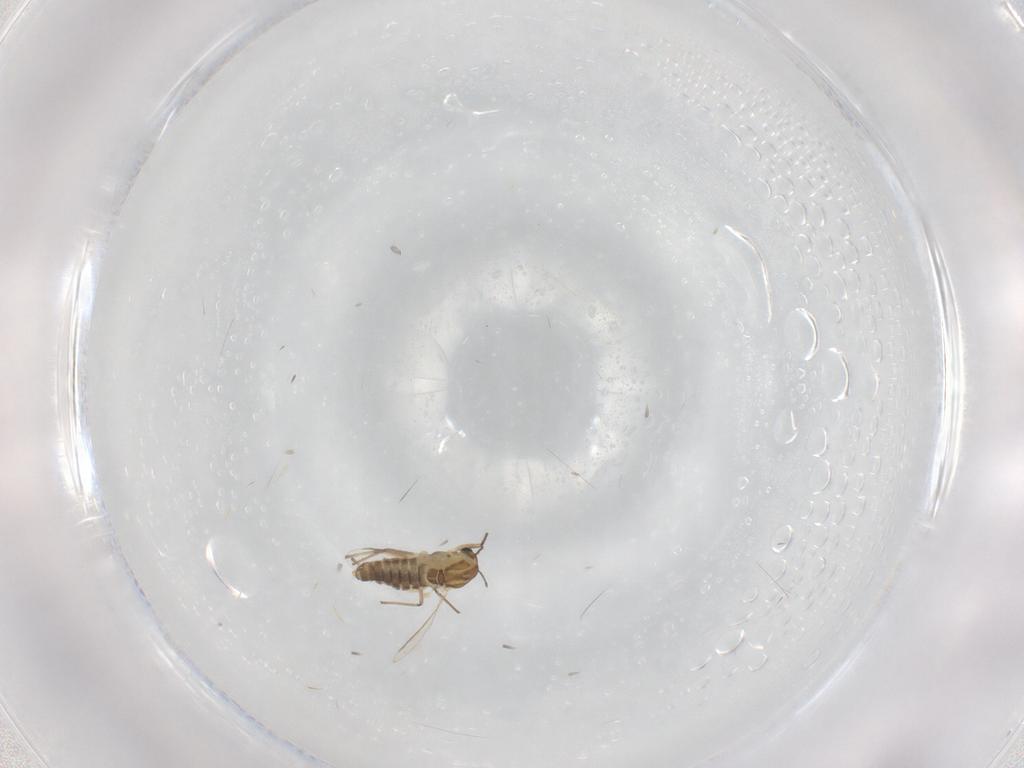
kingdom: Animalia
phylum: Arthropoda
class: Insecta
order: Diptera
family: Chironomidae
